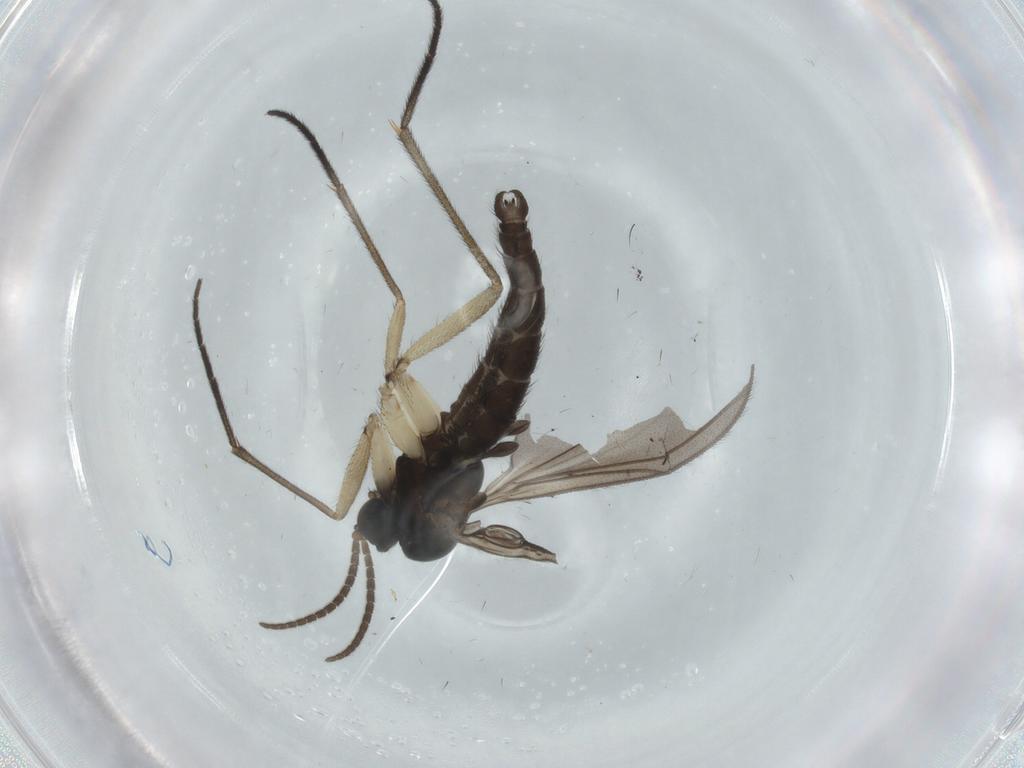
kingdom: Animalia
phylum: Arthropoda
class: Insecta
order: Diptera
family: Sciaridae
